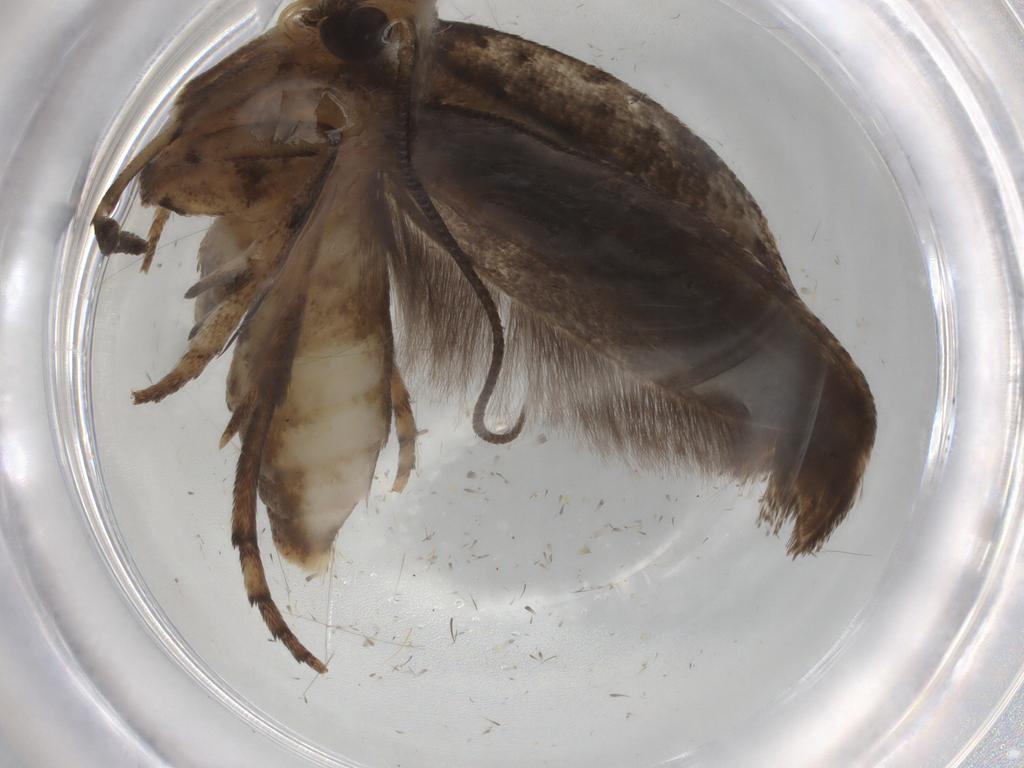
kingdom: Animalia
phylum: Arthropoda
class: Insecta
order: Lepidoptera
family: Yponomeutidae
